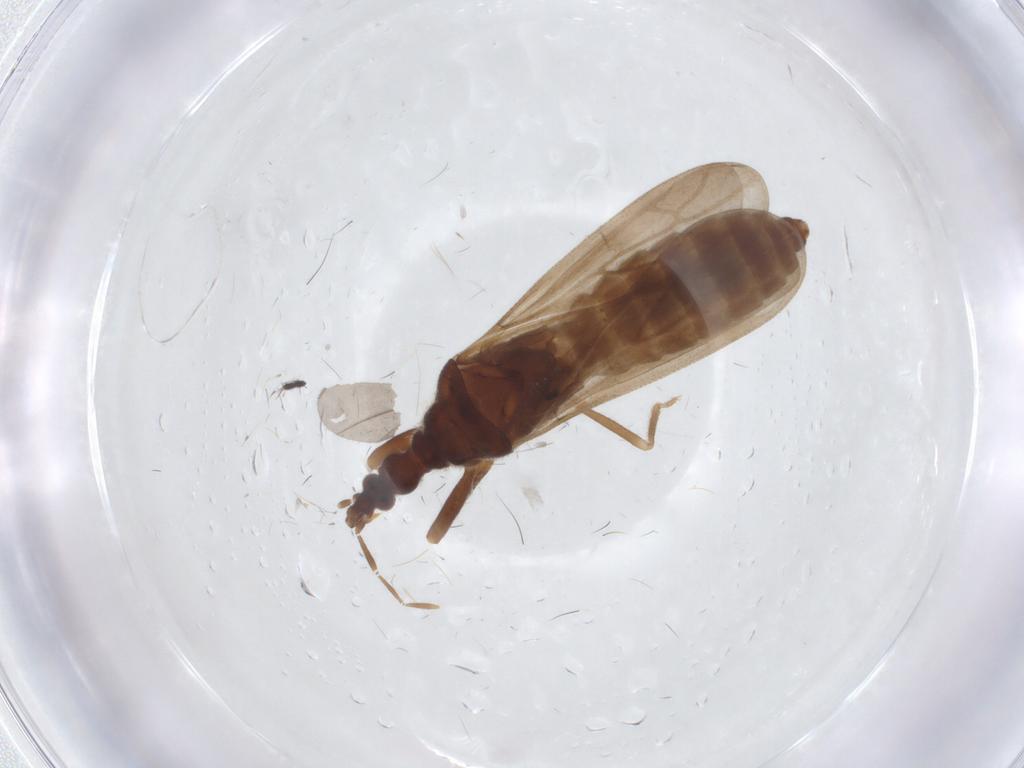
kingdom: Animalia
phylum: Arthropoda
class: Insecta
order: Hemiptera
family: Enicocephalidae
